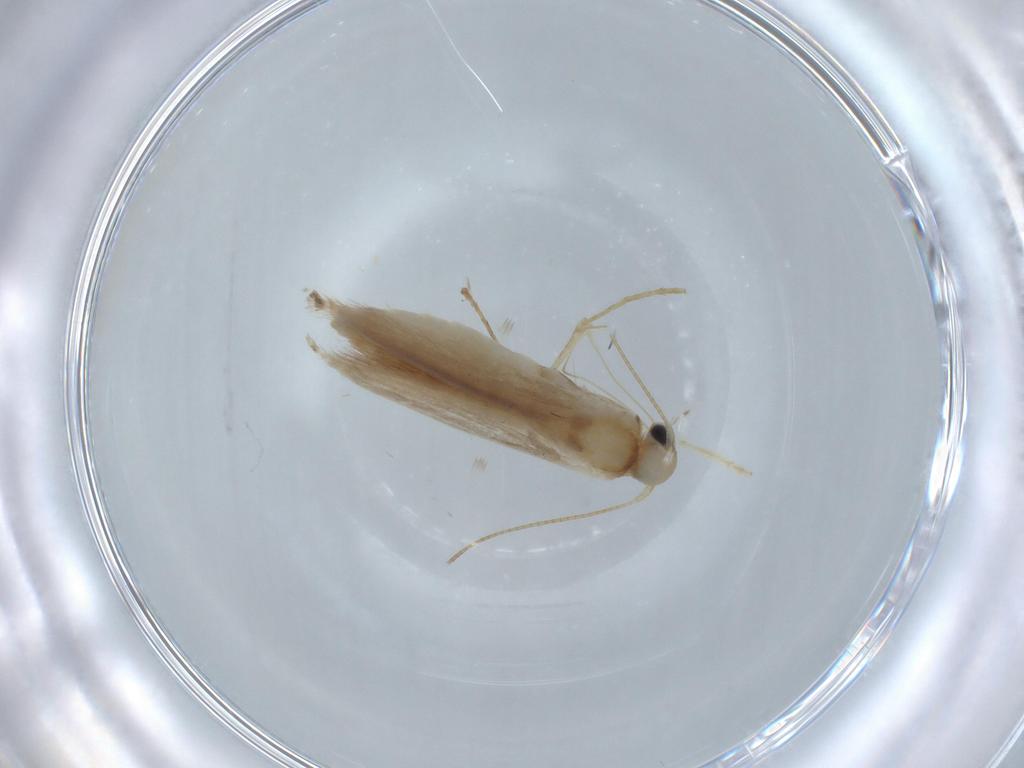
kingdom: Animalia
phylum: Arthropoda
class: Insecta
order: Lepidoptera
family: Gracillariidae
